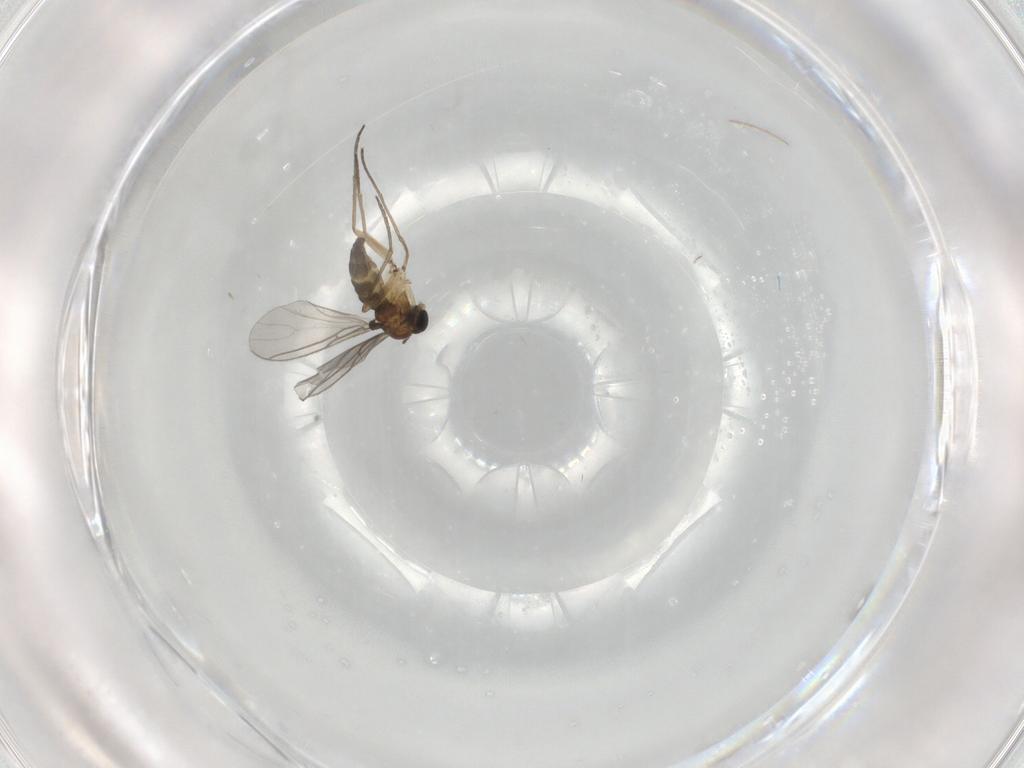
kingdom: Animalia
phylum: Arthropoda
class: Insecta
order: Diptera
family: Sciaridae
